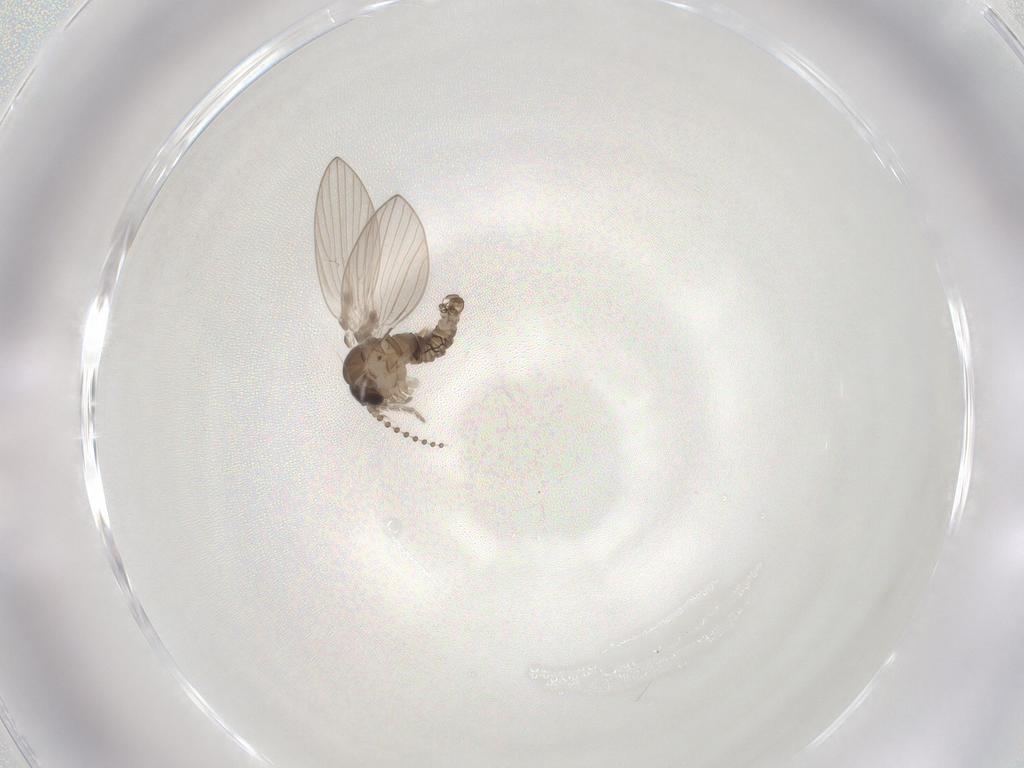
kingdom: Animalia
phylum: Arthropoda
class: Insecta
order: Diptera
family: Psychodidae
